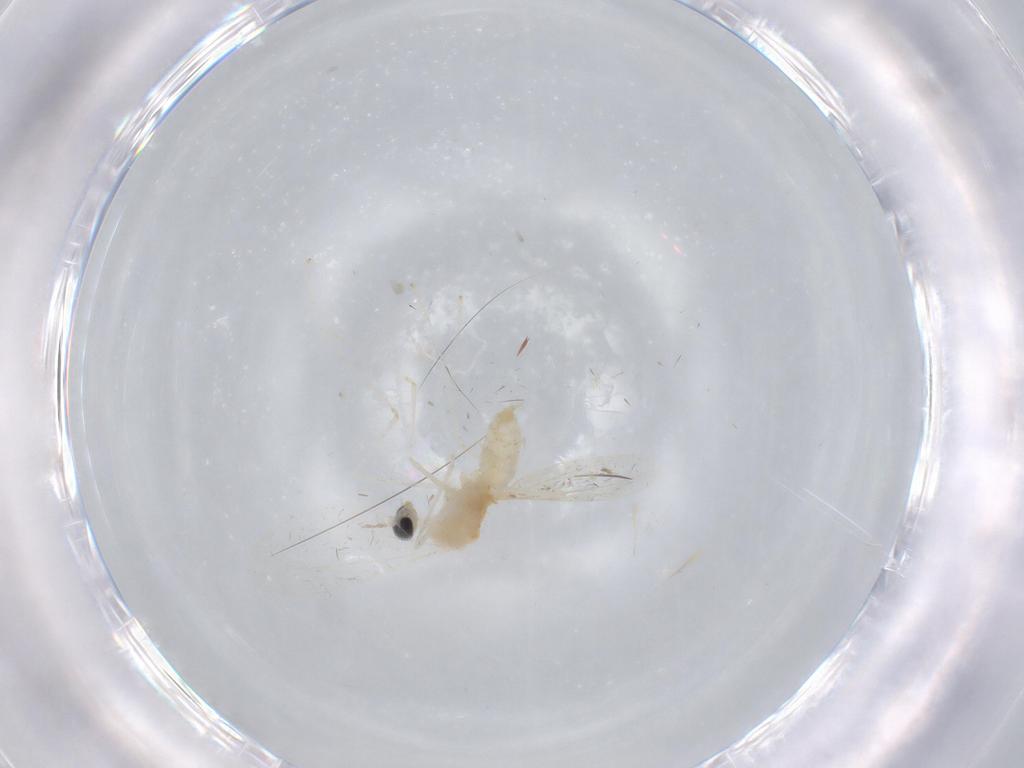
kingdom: Animalia
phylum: Arthropoda
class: Insecta
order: Diptera
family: Cecidomyiidae
